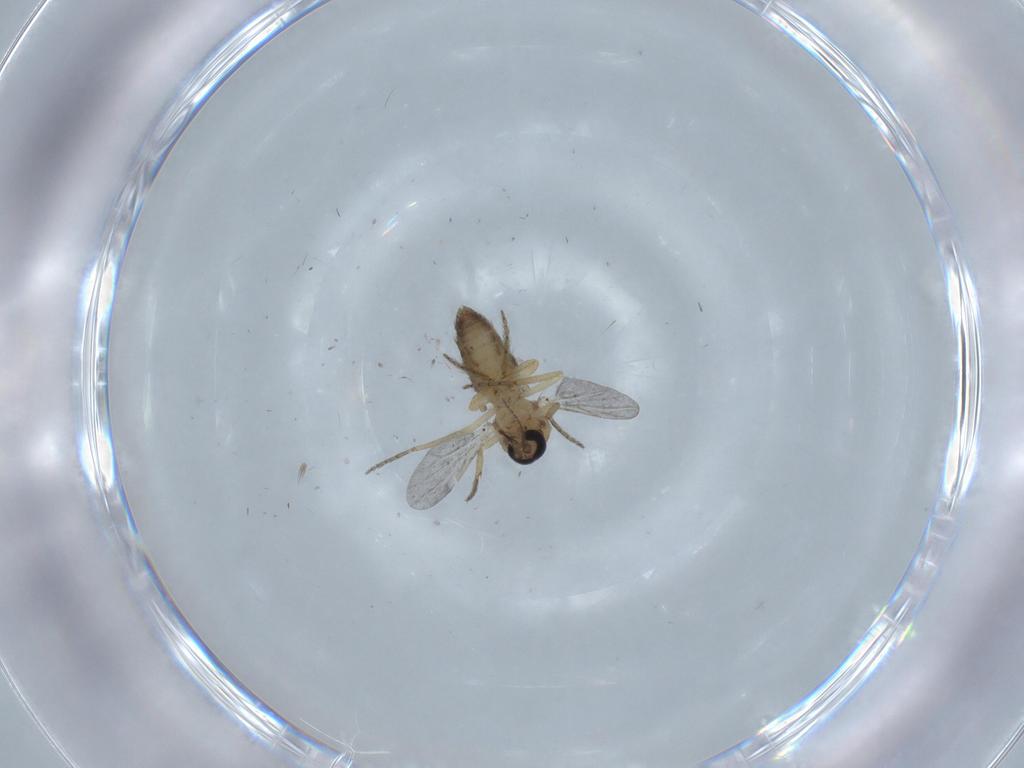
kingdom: Animalia
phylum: Arthropoda
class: Insecta
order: Diptera
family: Ceratopogonidae
